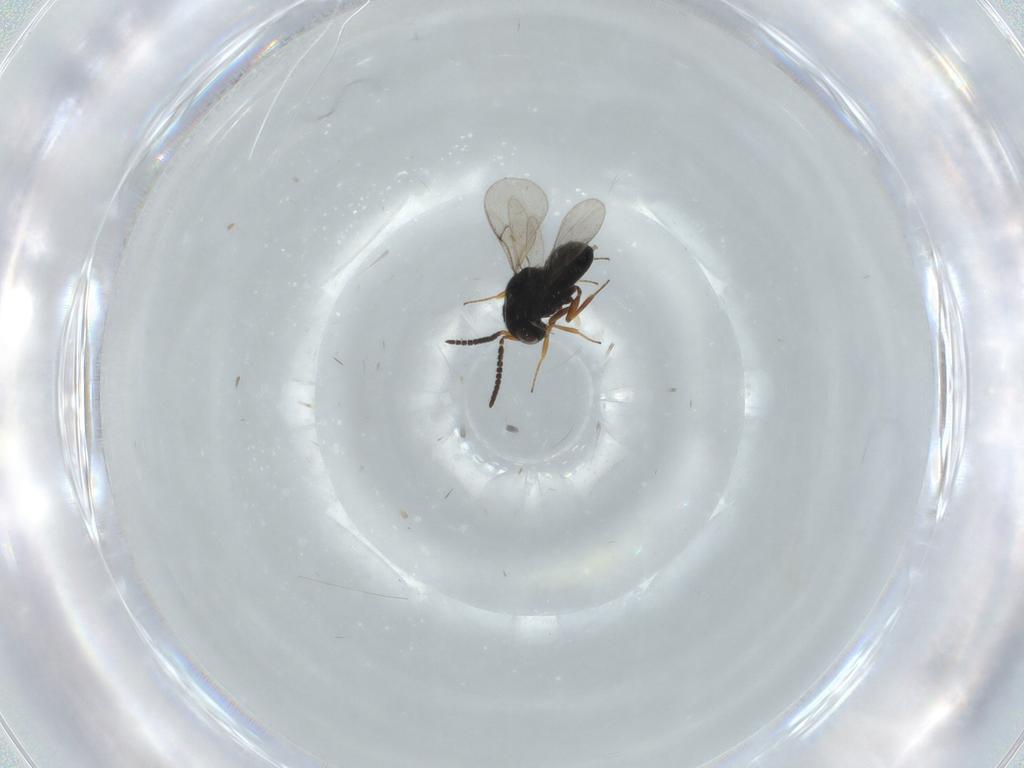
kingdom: Animalia
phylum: Arthropoda
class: Insecta
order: Hymenoptera
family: Scelionidae
